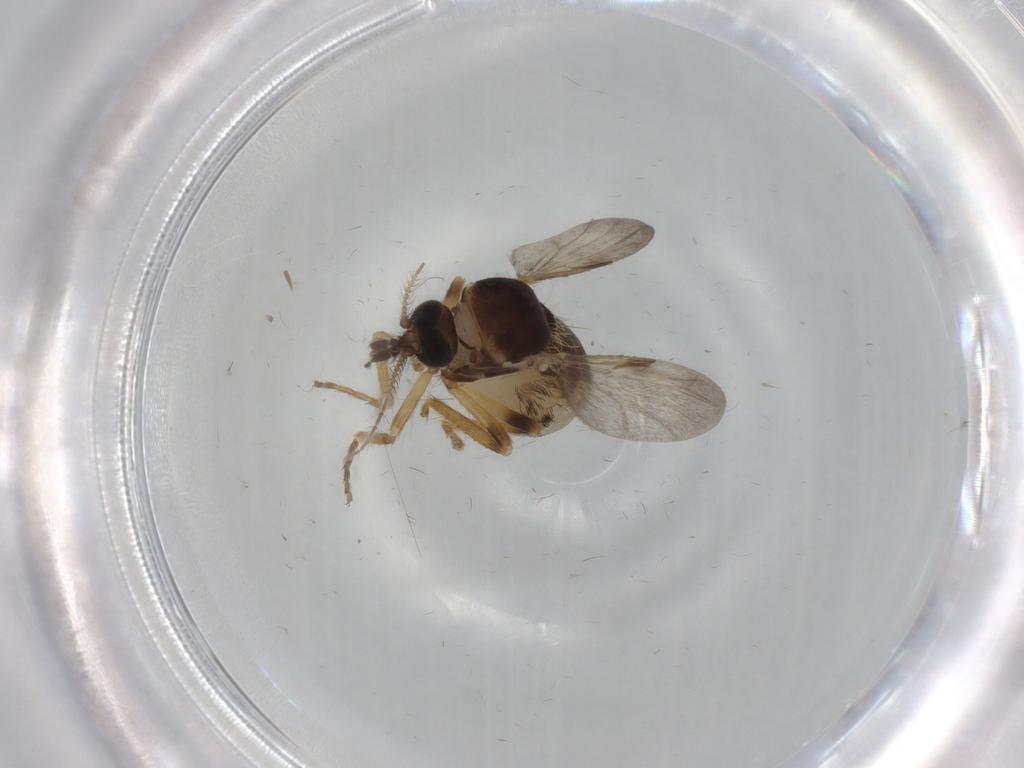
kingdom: Animalia
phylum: Arthropoda
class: Insecta
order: Diptera
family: Ceratopogonidae
